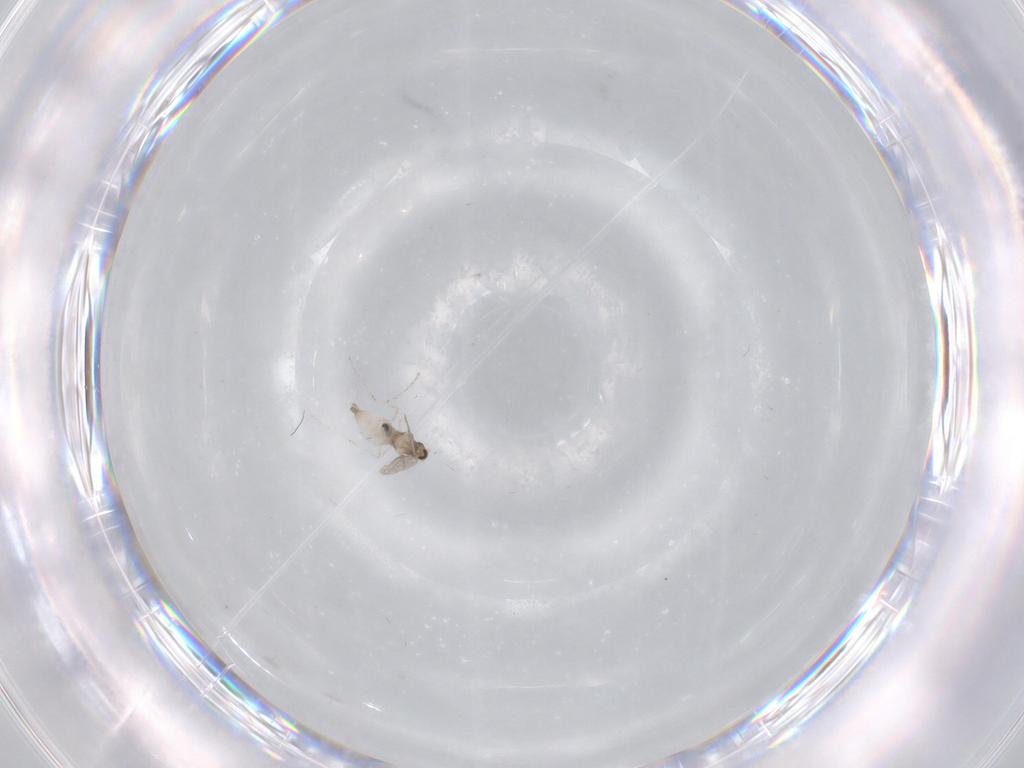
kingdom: Animalia
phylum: Arthropoda
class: Insecta
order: Diptera
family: Cecidomyiidae
